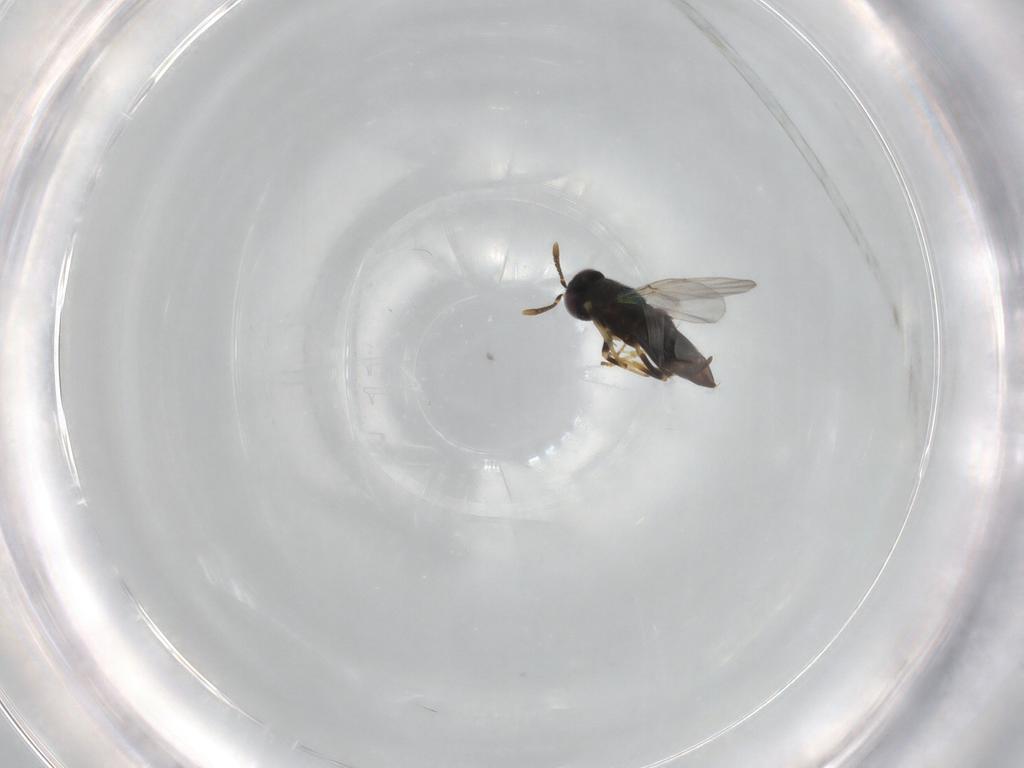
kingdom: Animalia
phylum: Arthropoda
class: Insecta
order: Hymenoptera
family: Encyrtidae
